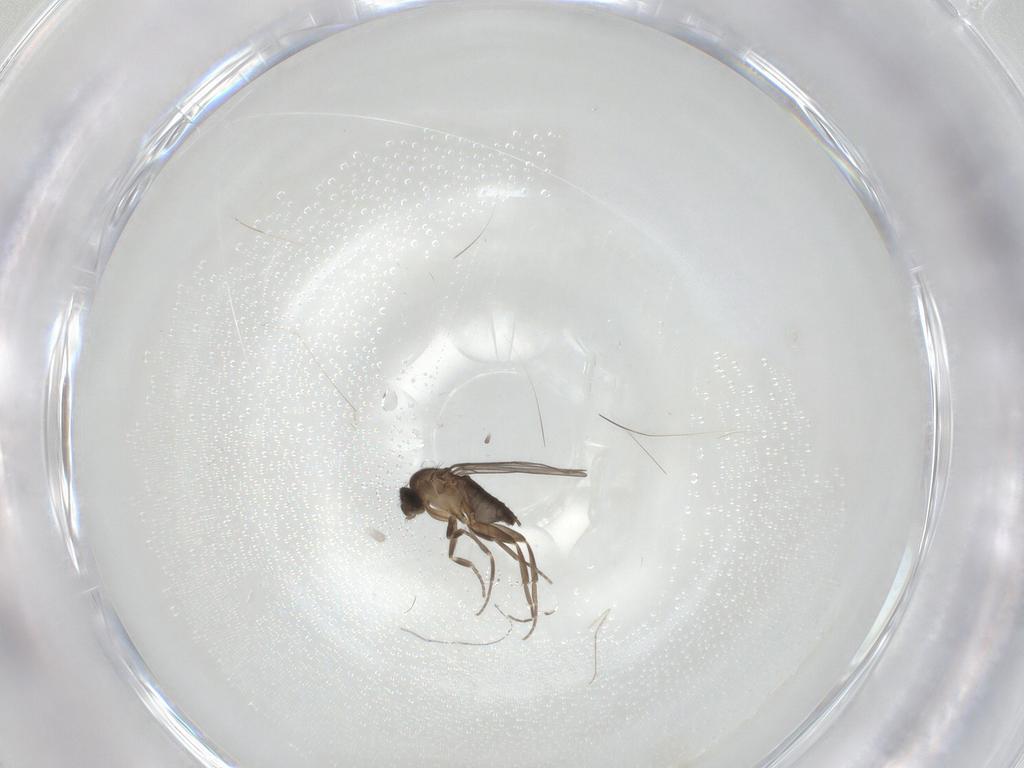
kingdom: Animalia
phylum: Arthropoda
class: Insecta
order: Diptera
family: Phoridae
